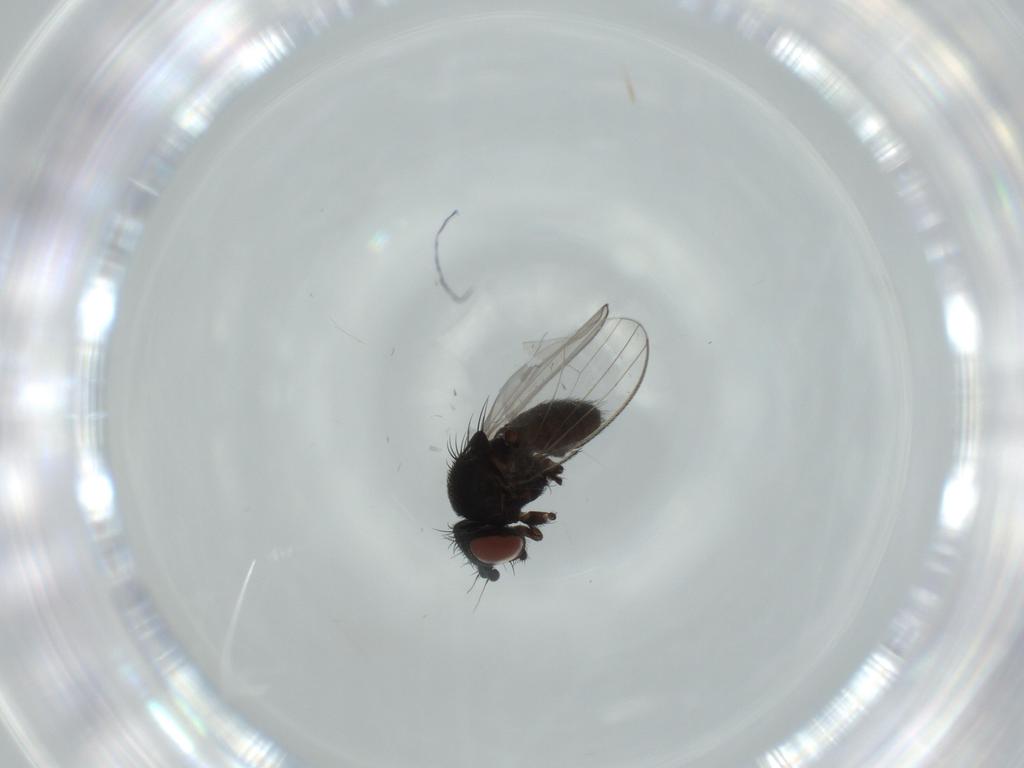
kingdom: Animalia
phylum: Arthropoda
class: Insecta
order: Diptera
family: Milichiidae
